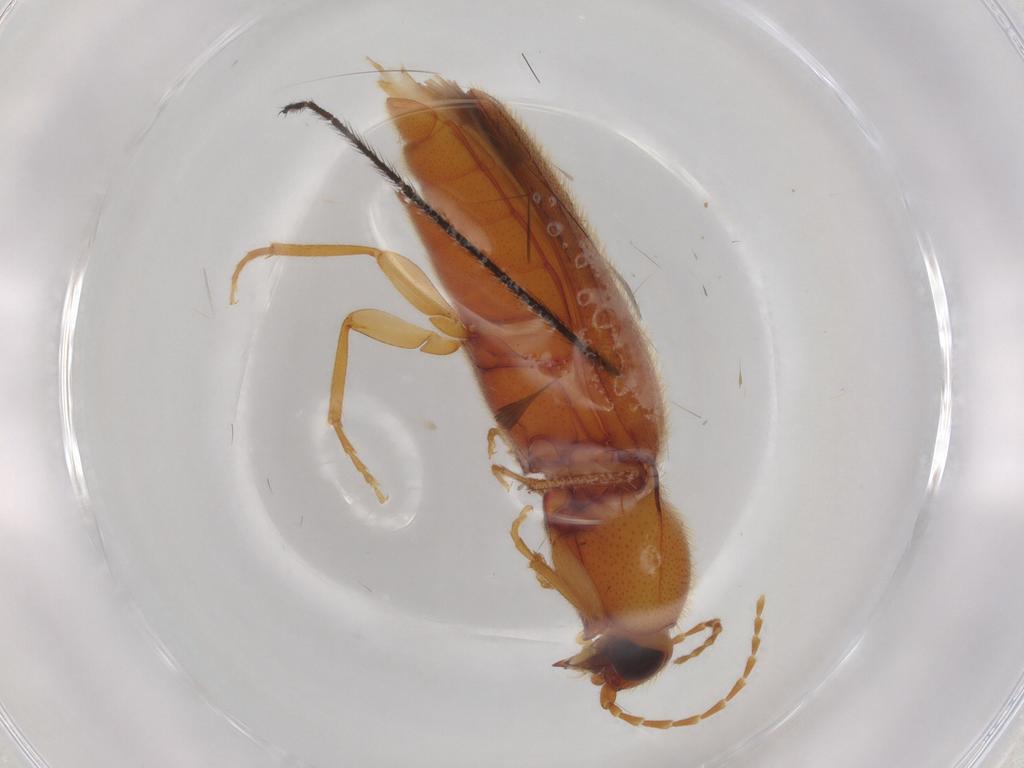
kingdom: Animalia
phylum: Arthropoda
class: Insecta
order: Coleoptera
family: Elateridae
